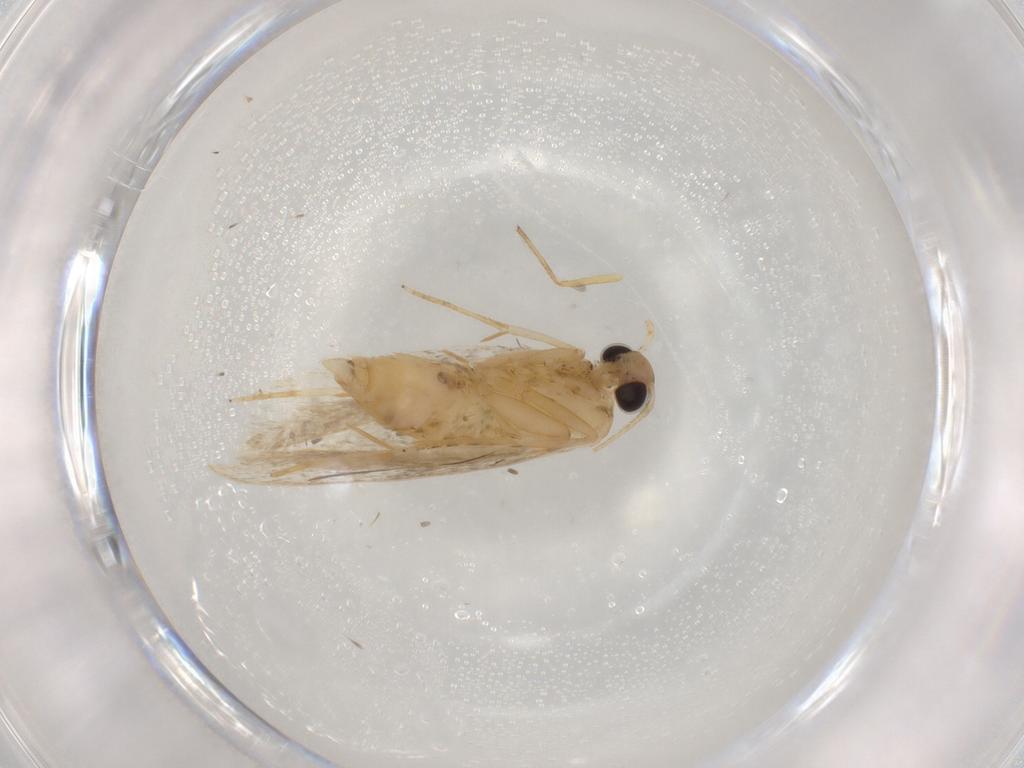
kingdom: Animalia
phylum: Arthropoda
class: Insecta
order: Lepidoptera
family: Noctuidae
